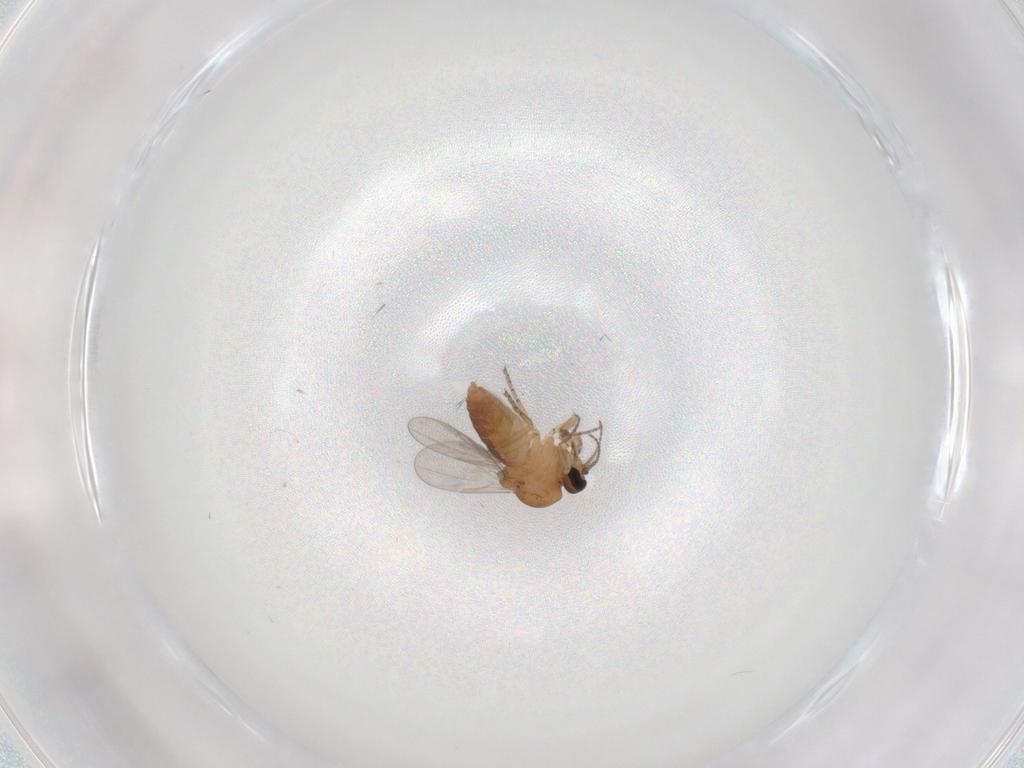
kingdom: Animalia
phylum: Arthropoda
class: Insecta
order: Diptera
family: Ceratopogonidae
